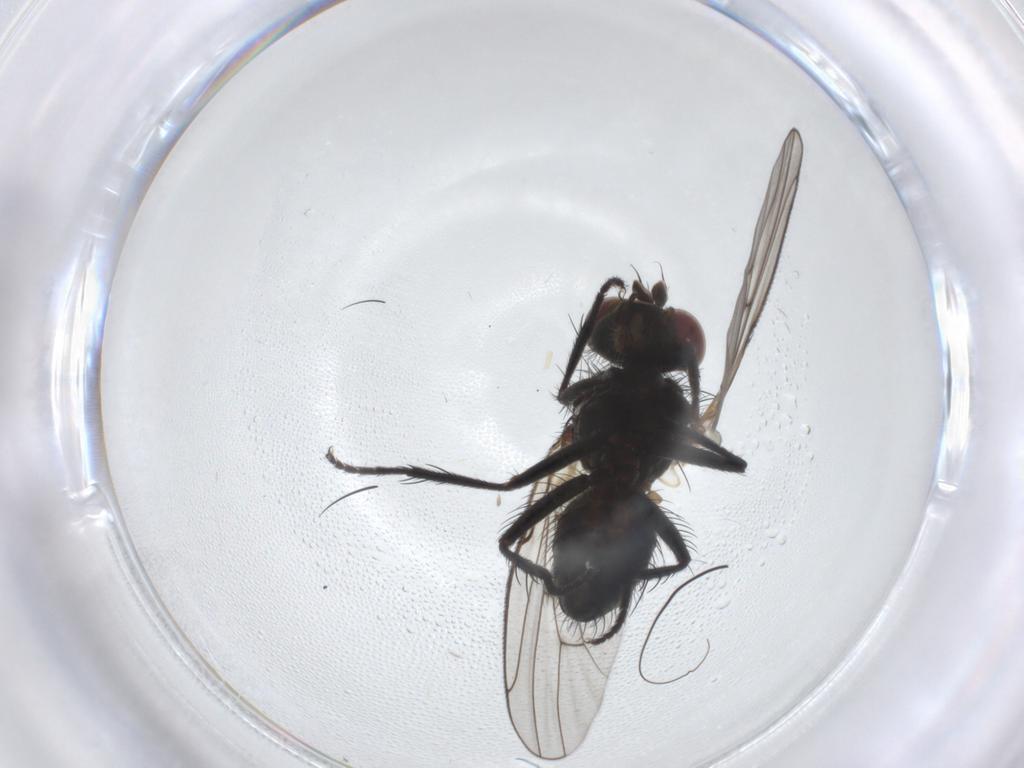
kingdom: Animalia
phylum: Arthropoda
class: Insecta
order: Diptera
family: Muscidae
